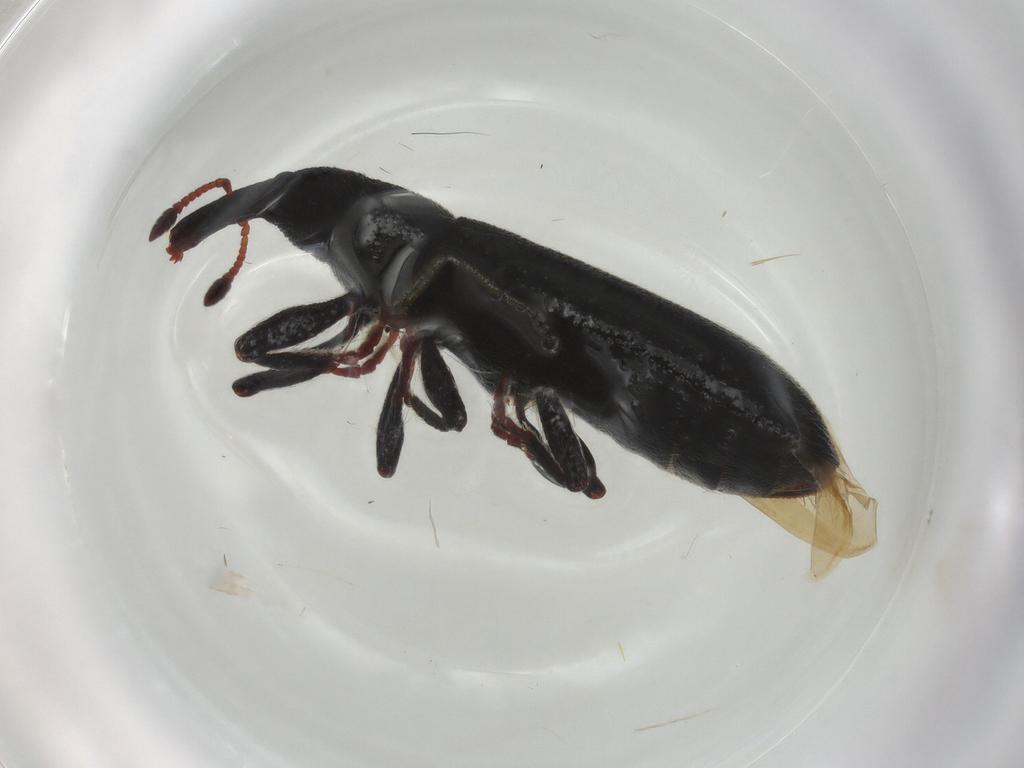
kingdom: Animalia
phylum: Arthropoda
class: Insecta
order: Coleoptera
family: Curculionidae
